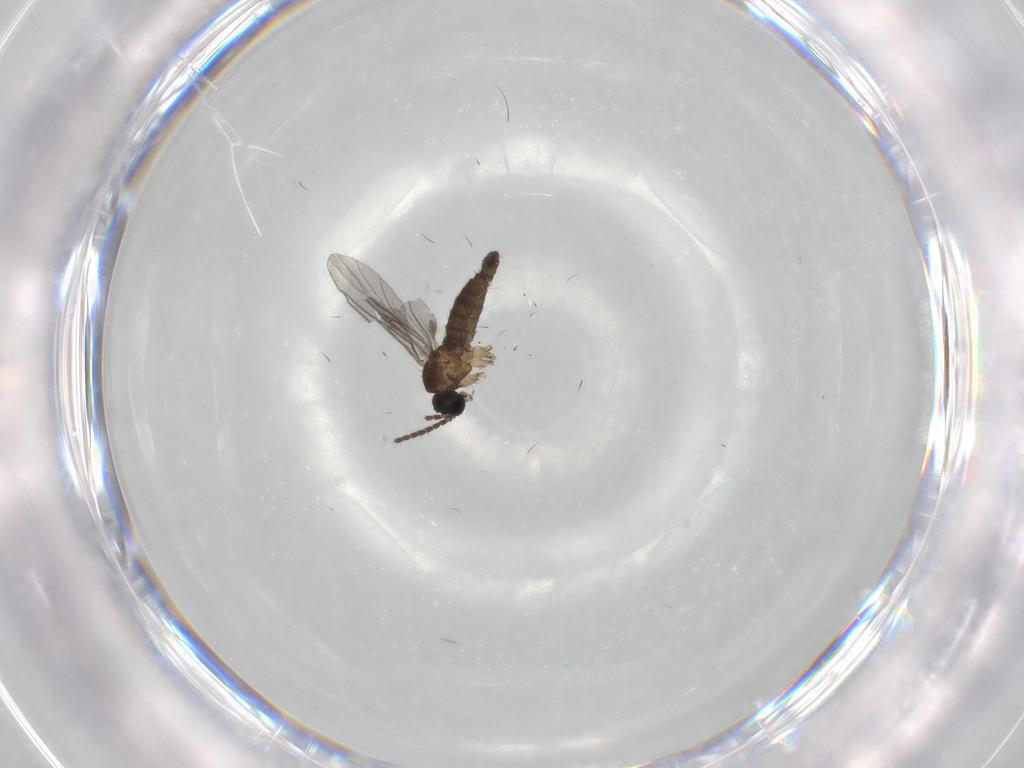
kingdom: Animalia
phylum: Arthropoda
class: Insecta
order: Diptera
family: Sciaridae
